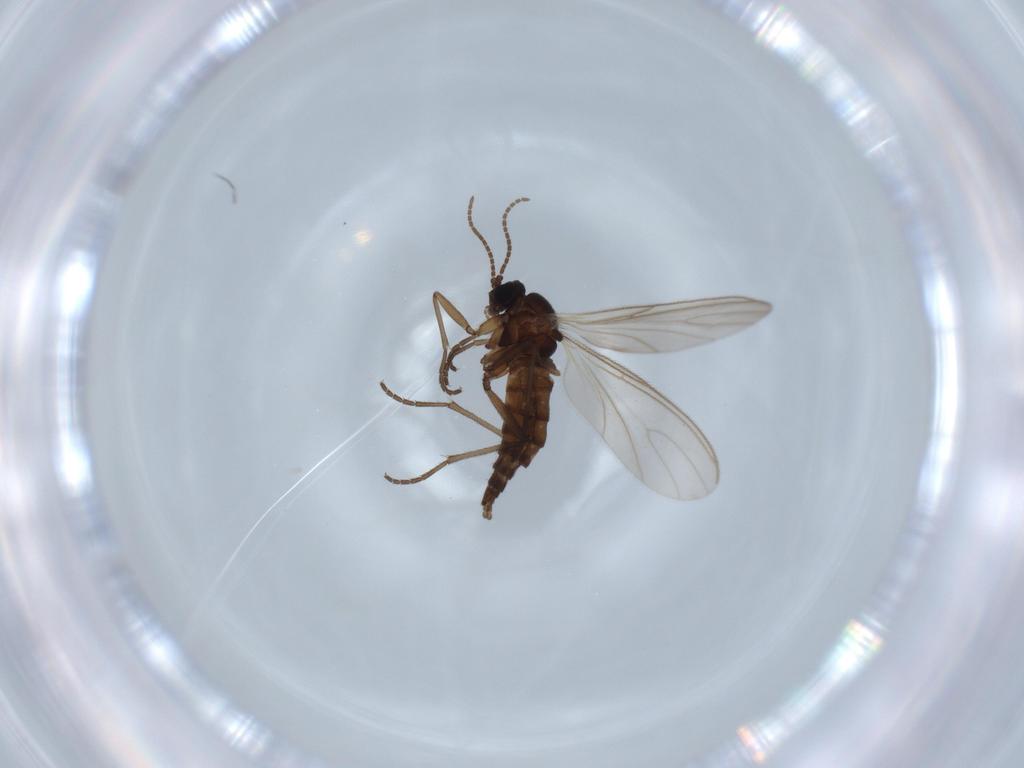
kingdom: Animalia
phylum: Arthropoda
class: Insecta
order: Diptera
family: Sciaridae
